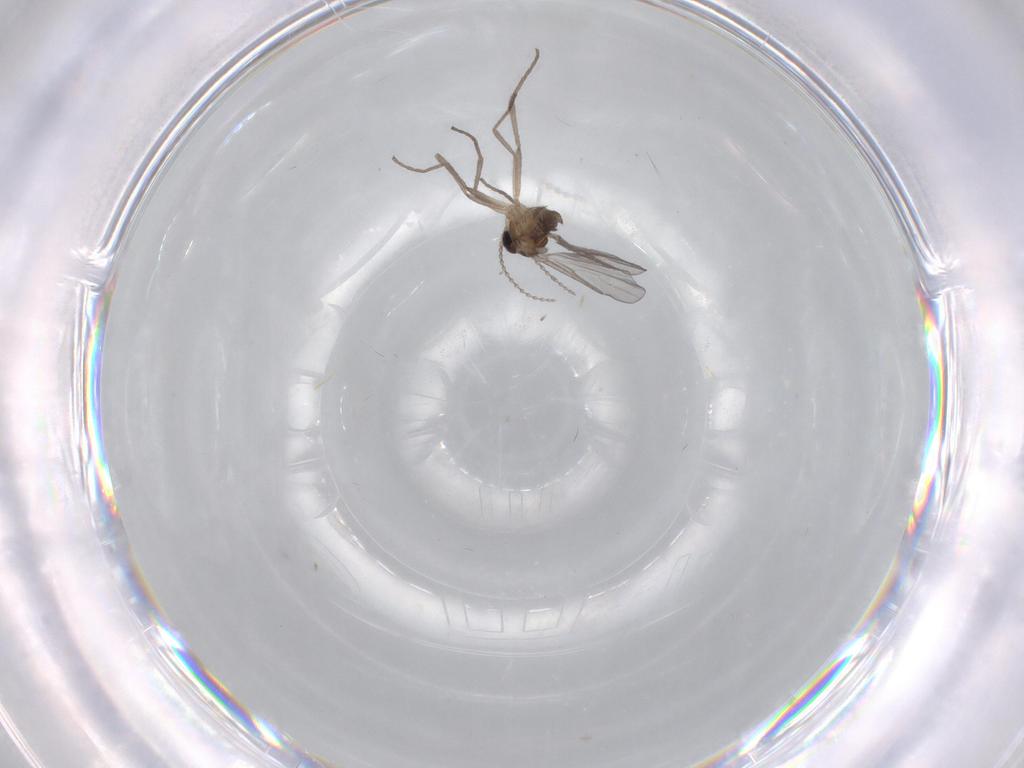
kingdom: Animalia
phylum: Arthropoda
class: Insecta
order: Diptera
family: Cecidomyiidae
